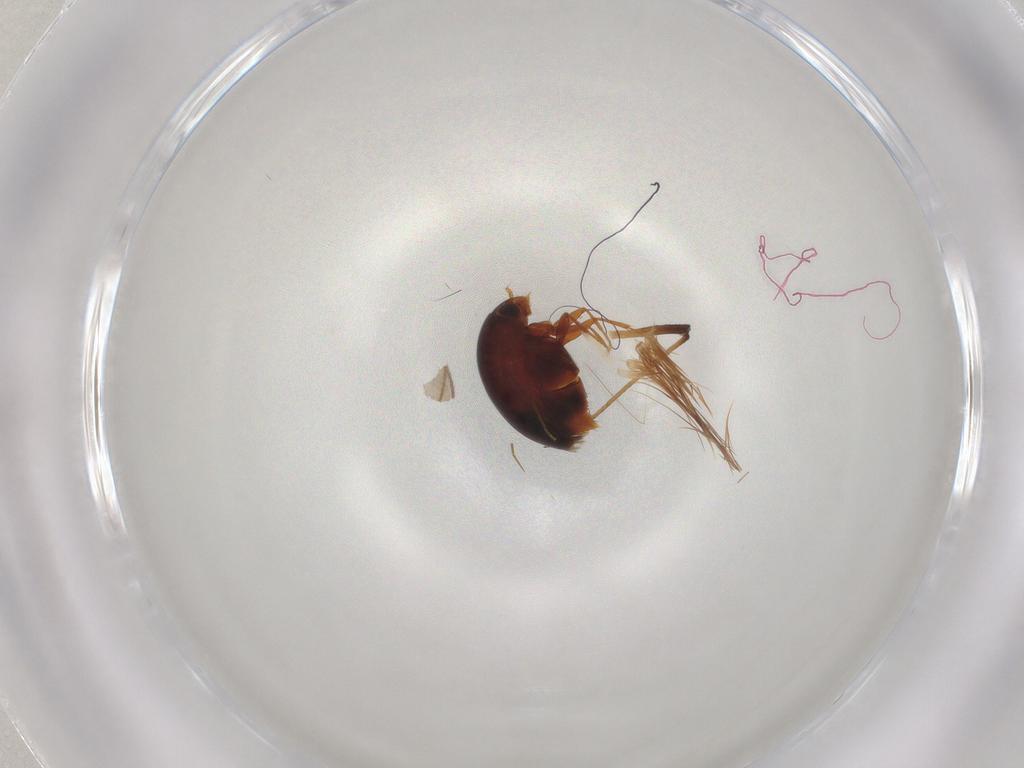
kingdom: Animalia
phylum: Arthropoda
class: Insecta
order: Coleoptera
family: Staphylinidae
